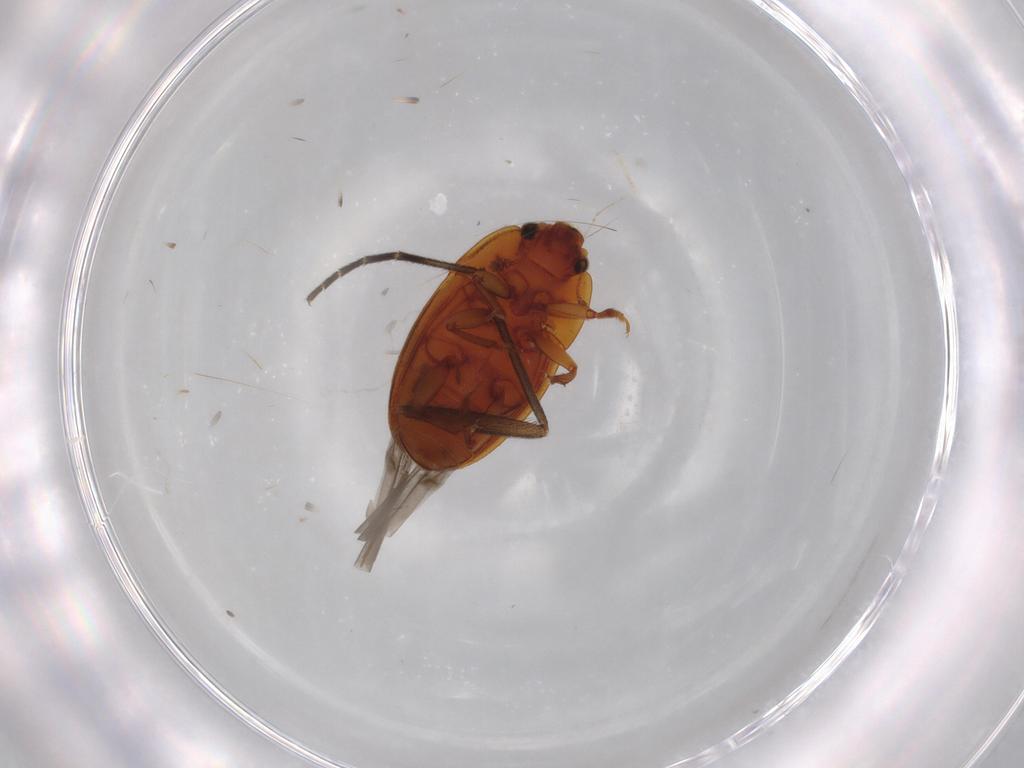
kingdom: Animalia
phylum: Arthropoda
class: Insecta
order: Coleoptera
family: Nitidulidae
